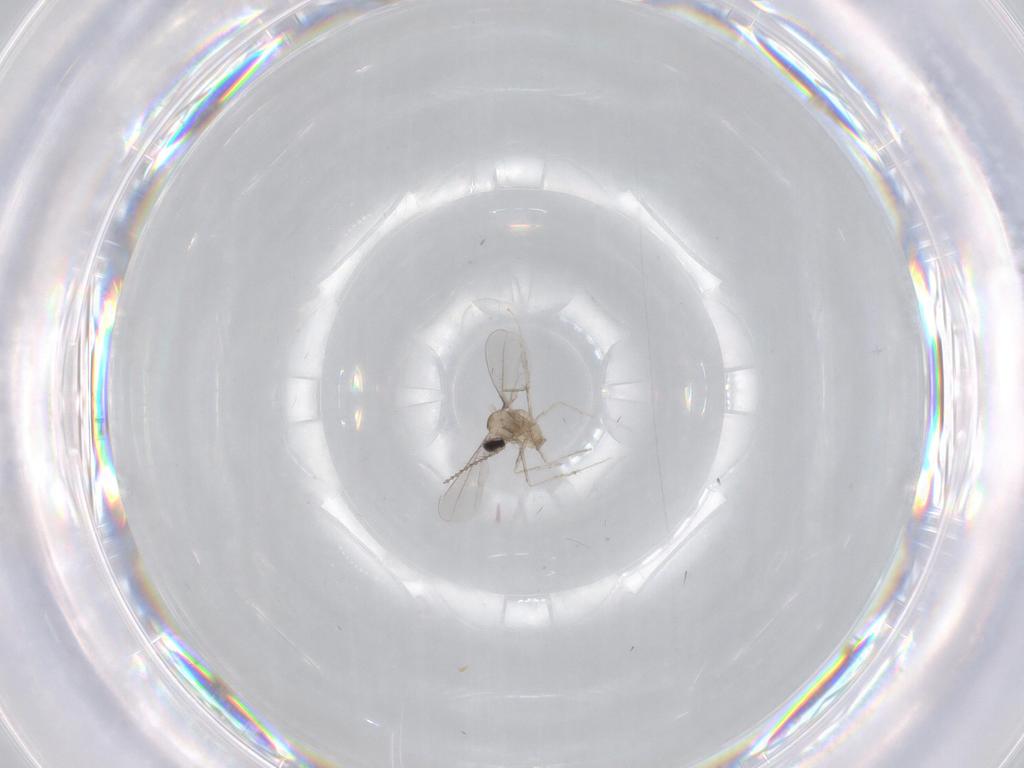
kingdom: Animalia
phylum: Arthropoda
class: Insecta
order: Diptera
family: Cecidomyiidae
